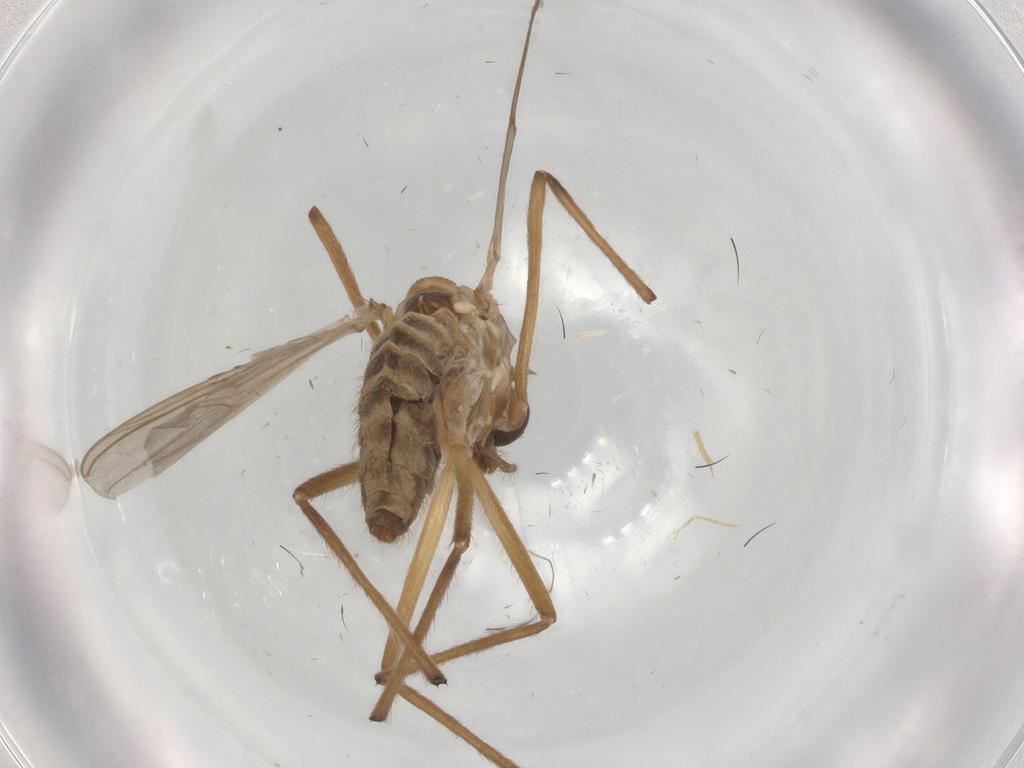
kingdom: Animalia
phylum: Arthropoda
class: Insecta
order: Diptera
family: Chironomidae
